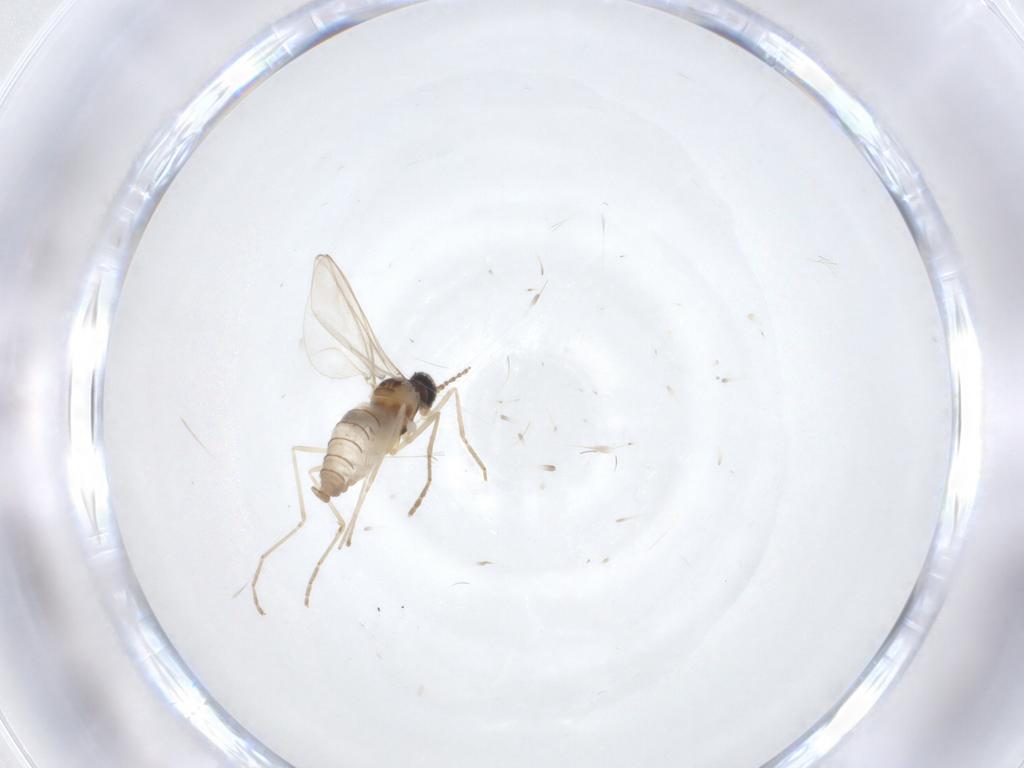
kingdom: Animalia
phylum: Arthropoda
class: Insecta
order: Diptera
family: Cecidomyiidae
